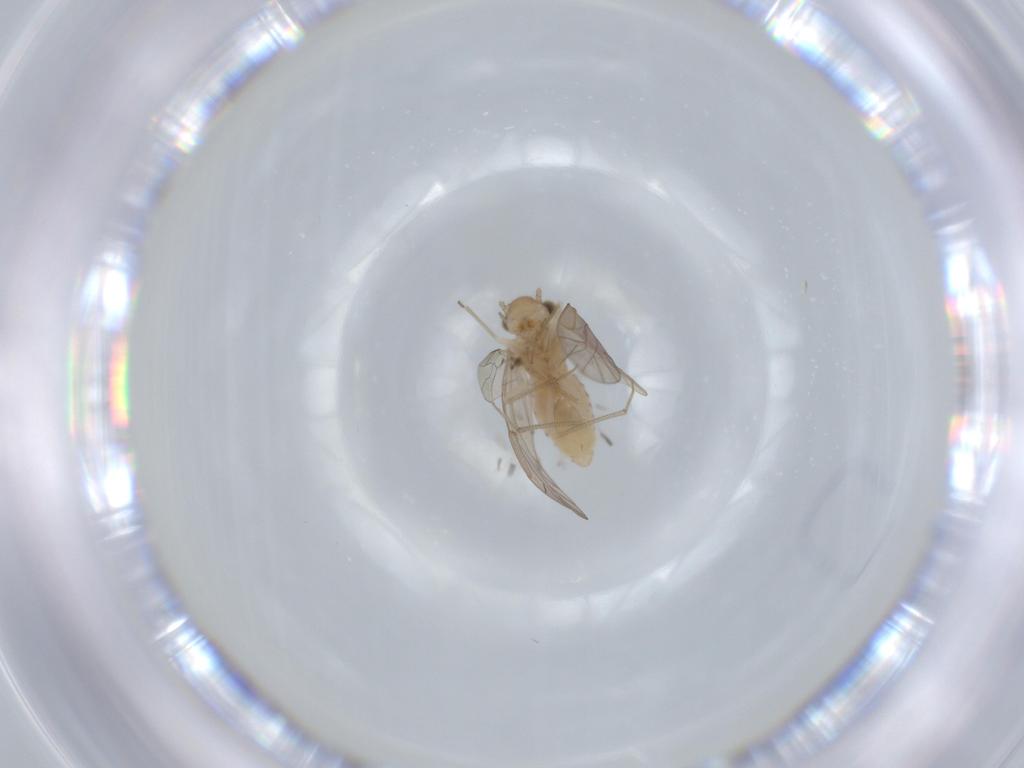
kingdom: Animalia
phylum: Arthropoda
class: Insecta
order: Psocodea
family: Lachesillidae
